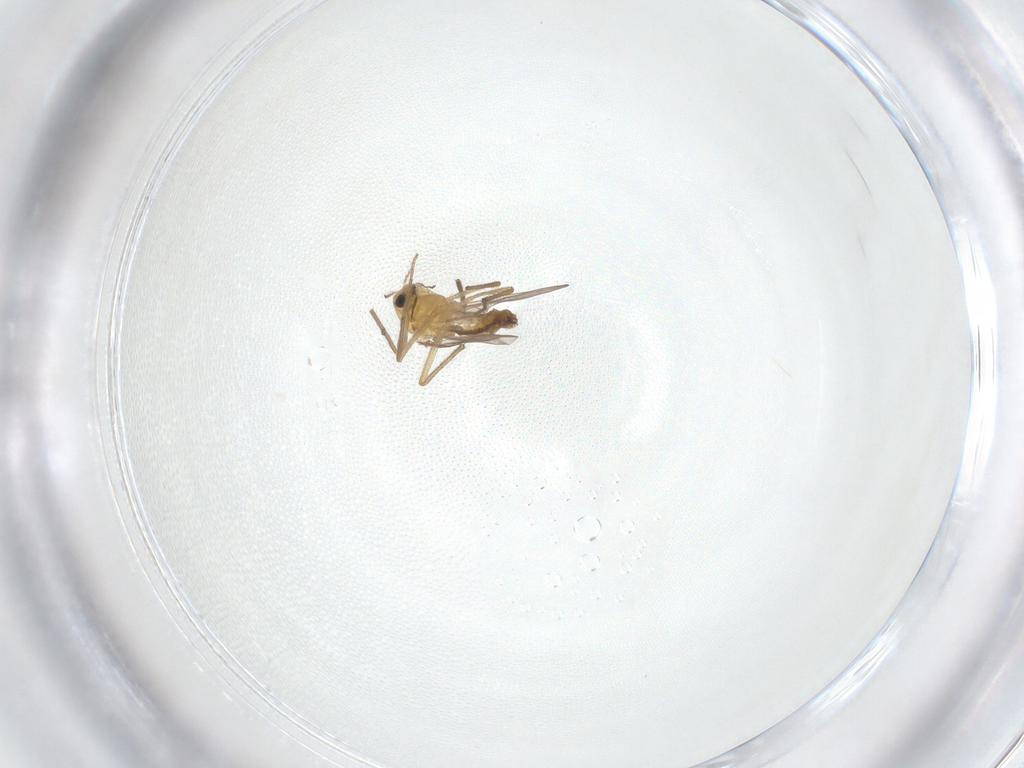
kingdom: Animalia
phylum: Arthropoda
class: Insecta
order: Diptera
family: Chironomidae
